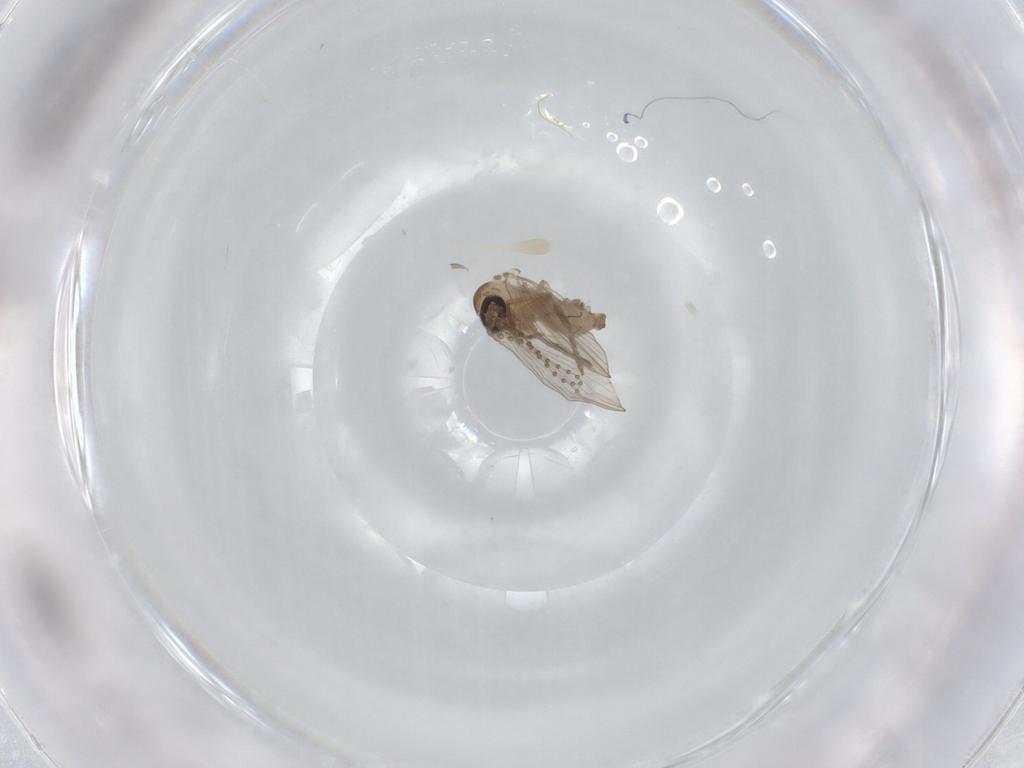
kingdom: Animalia
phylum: Arthropoda
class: Insecta
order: Diptera
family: Psychodidae
